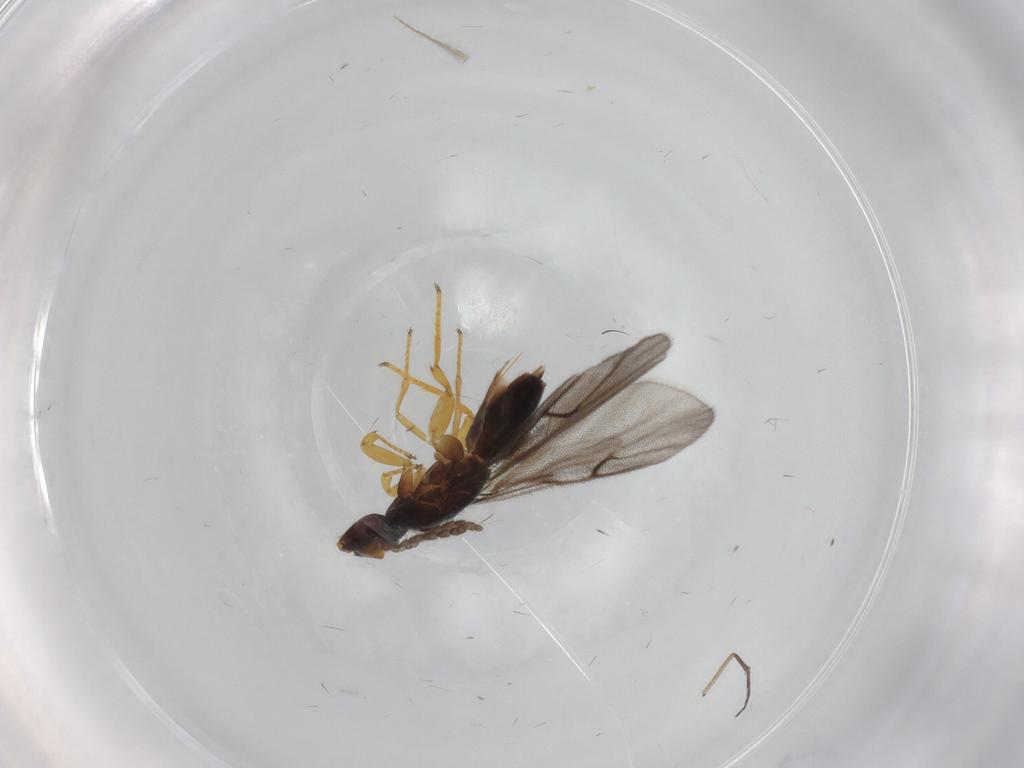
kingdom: Animalia
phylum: Arthropoda
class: Insecta
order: Hymenoptera
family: Agaonidae
